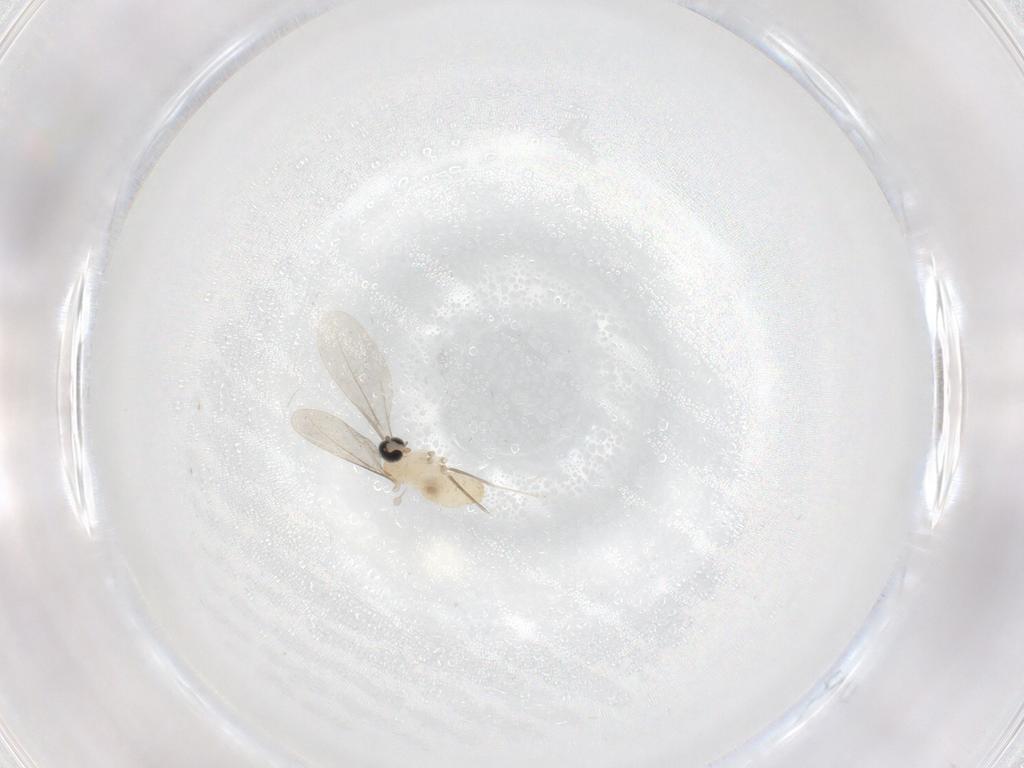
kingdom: Animalia
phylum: Arthropoda
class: Insecta
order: Diptera
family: Cecidomyiidae
